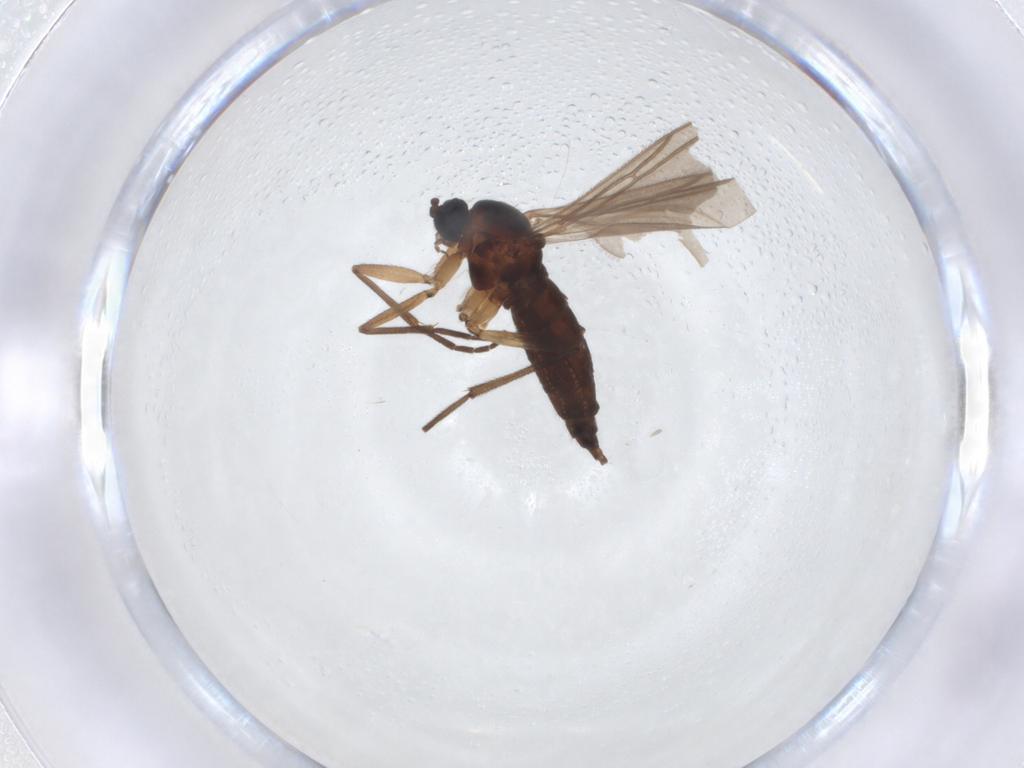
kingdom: Animalia
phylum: Arthropoda
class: Insecta
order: Diptera
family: Sciaridae
